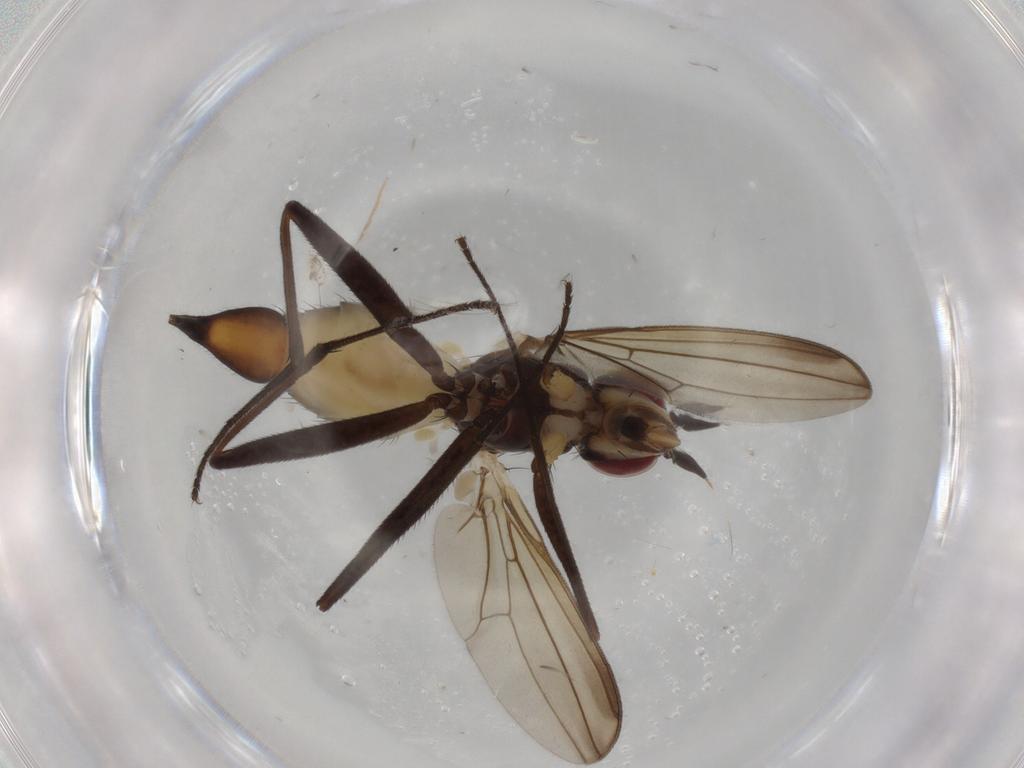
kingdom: Animalia
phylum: Arthropoda
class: Insecta
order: Diptera
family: Neriidae
